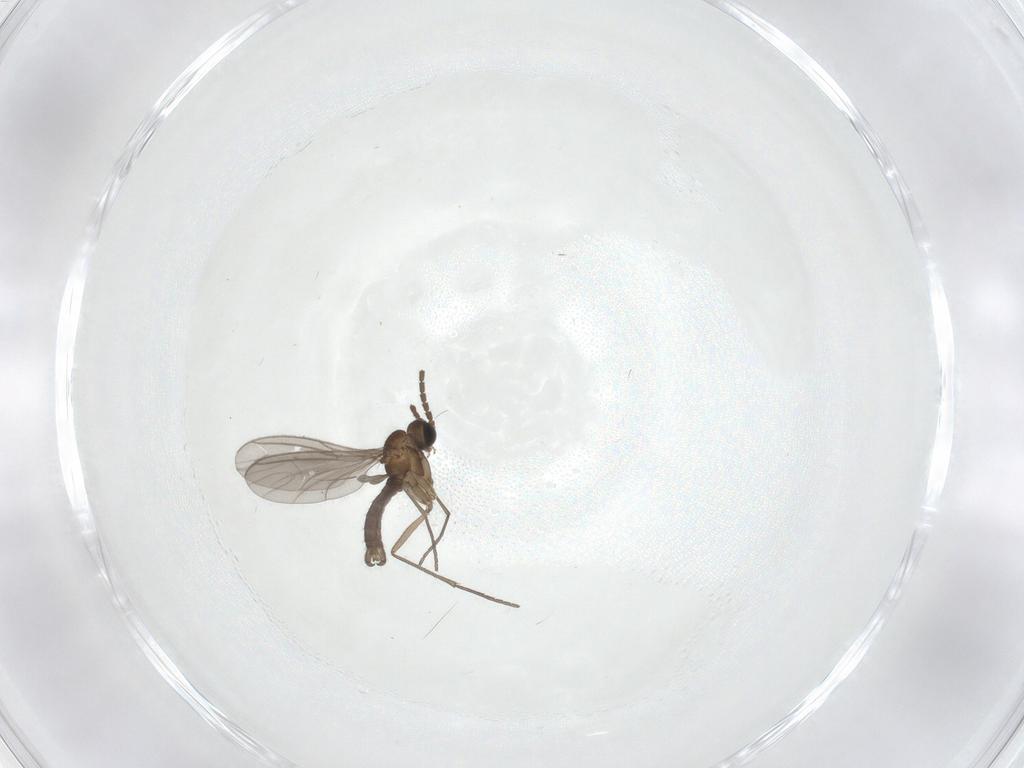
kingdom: Animalia
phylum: Arthropoda
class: Insecta
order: Diptera
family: Sciaridae
